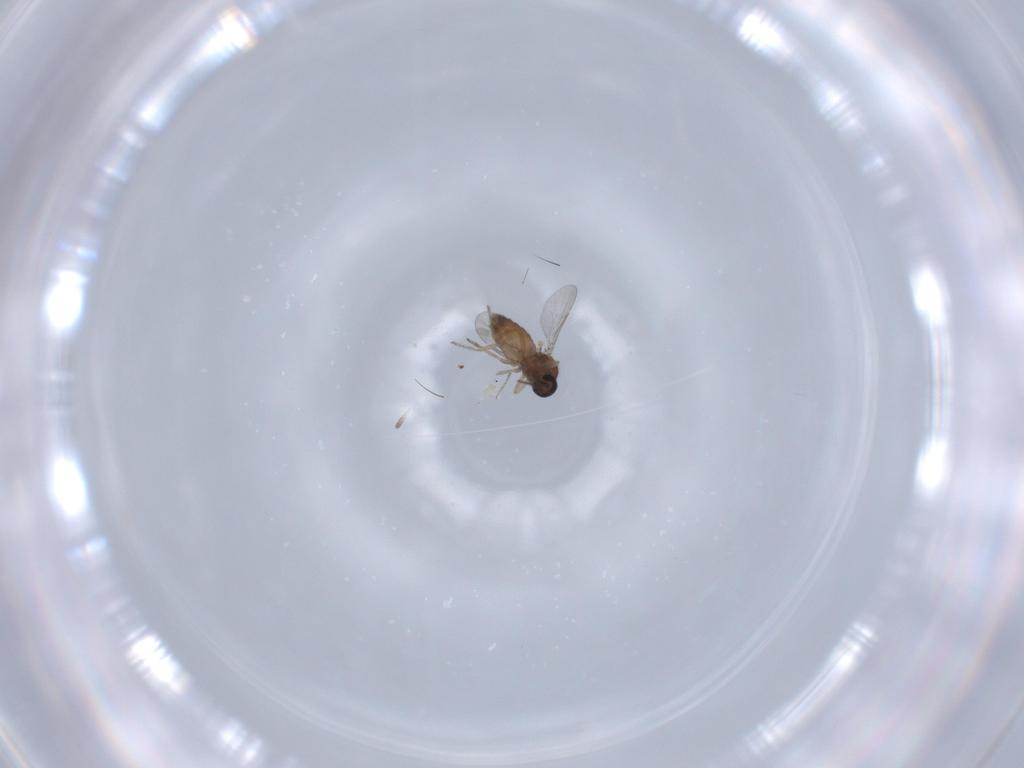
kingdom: Animalia
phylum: Arthropoda
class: Insecta
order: Diptera
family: Ceratopogonidae
